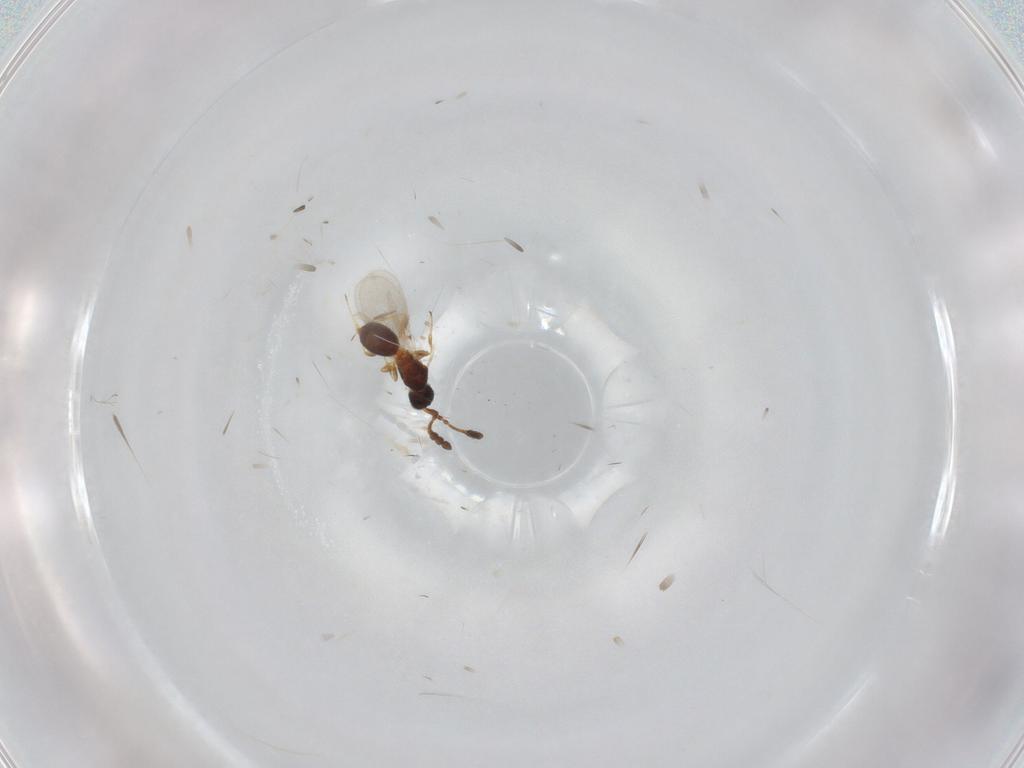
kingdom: Animalia
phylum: Arthropoda
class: Insecta
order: Hymenoptera
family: Diapriidae
